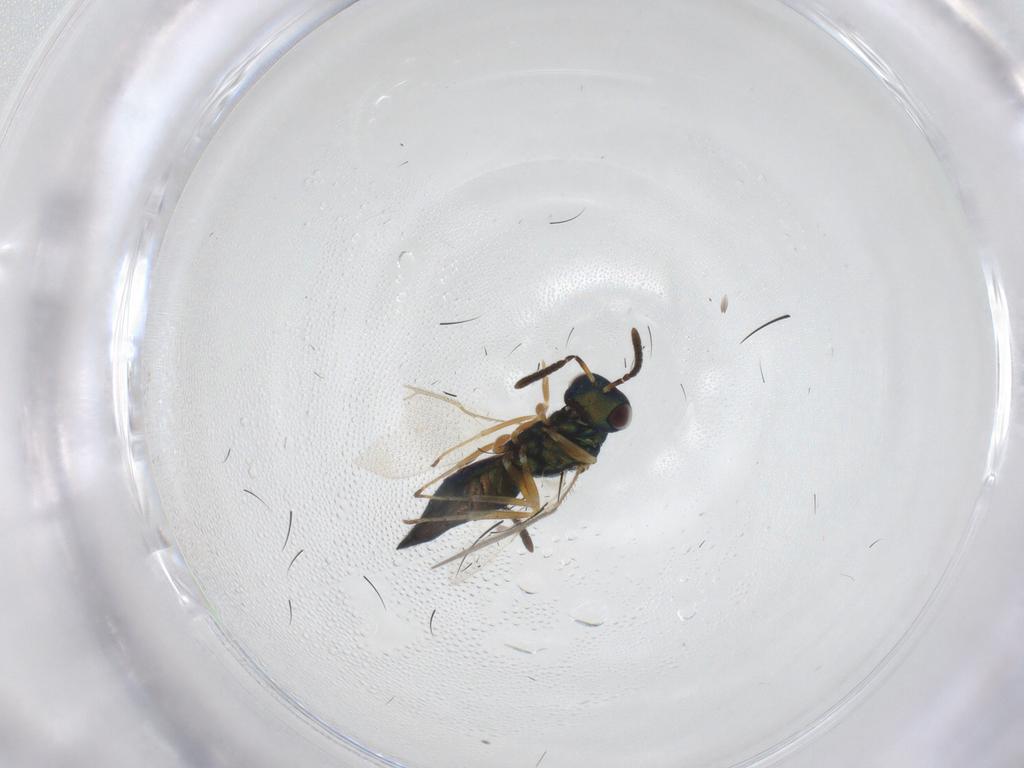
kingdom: Animalia
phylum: Arthropoda
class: Insecta
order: Hymenoptera
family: Pteromalidae
